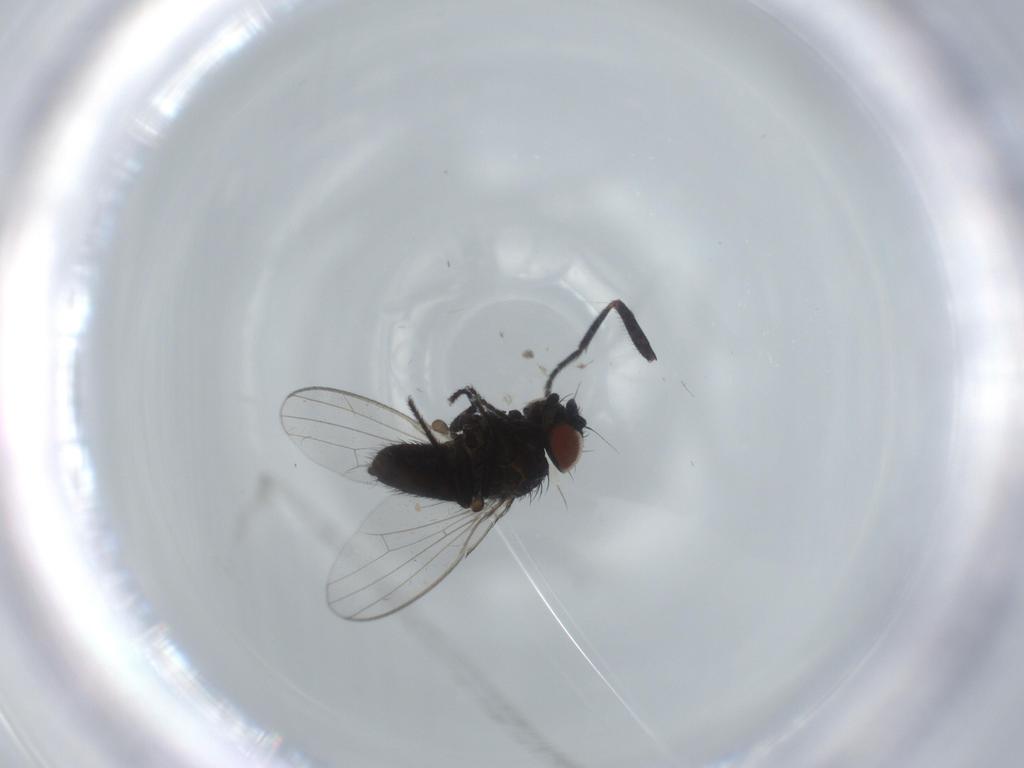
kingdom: Animalia
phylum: Arthropoda
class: Insecta
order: Diptera
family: Milichiidae
